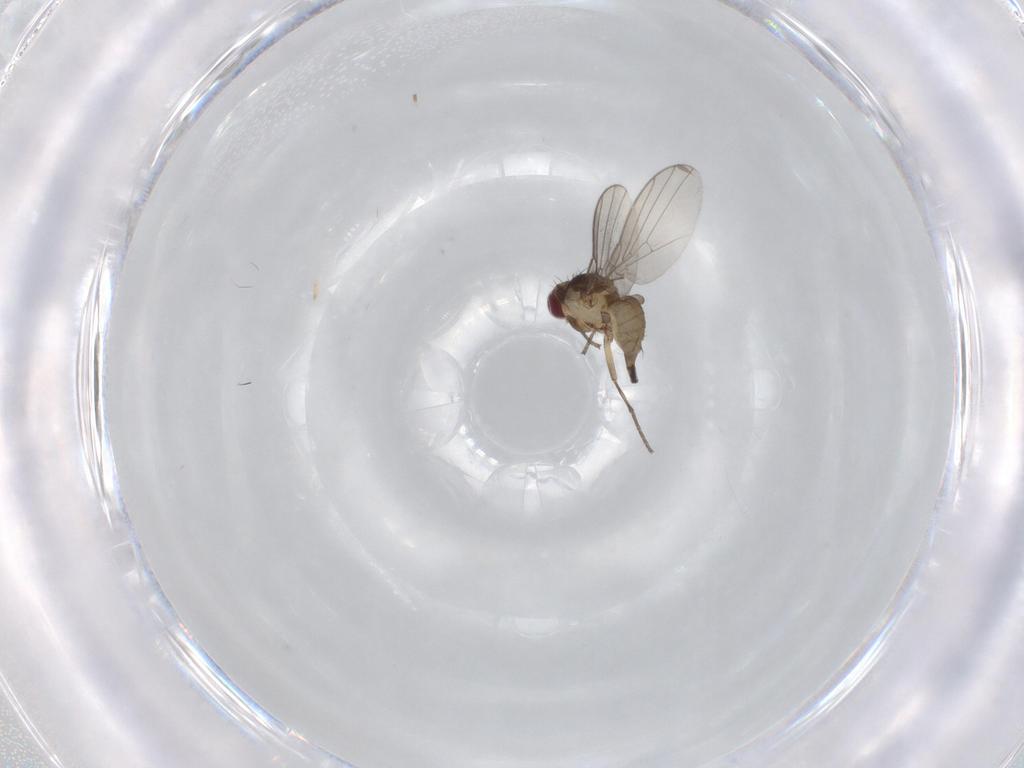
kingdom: Animalia
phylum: Arthropoda
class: Insecta
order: Diptera
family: Agromyzidae
